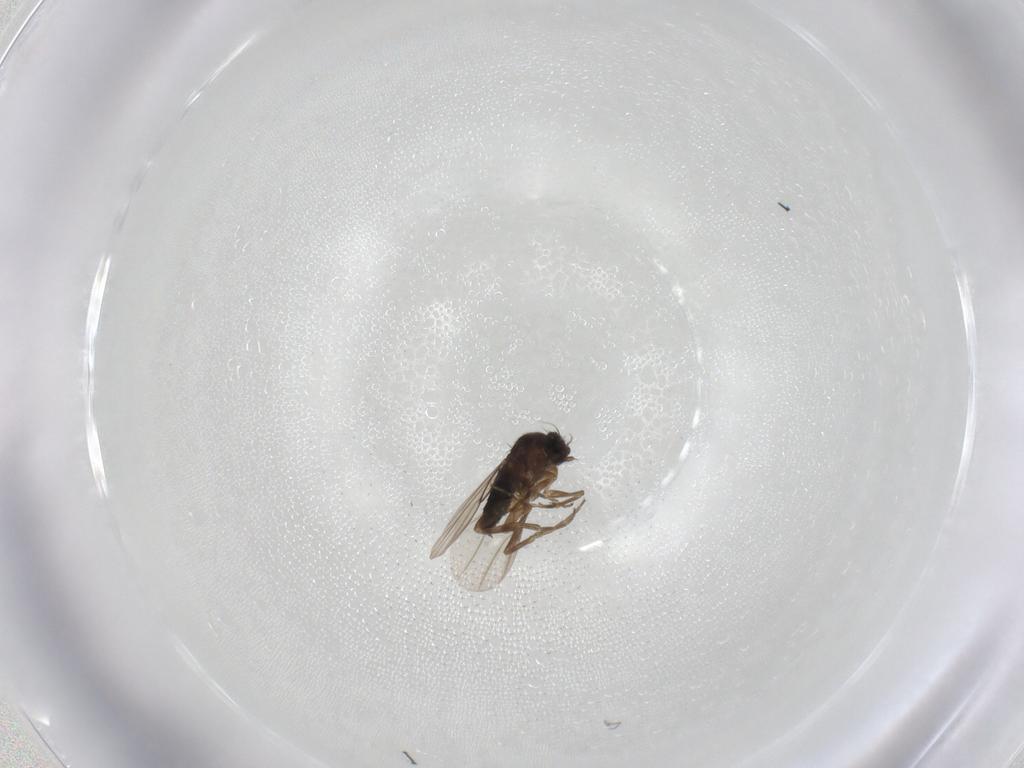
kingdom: Animalia
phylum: Arthropoda
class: Insecta
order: Diptera
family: Phoridae
